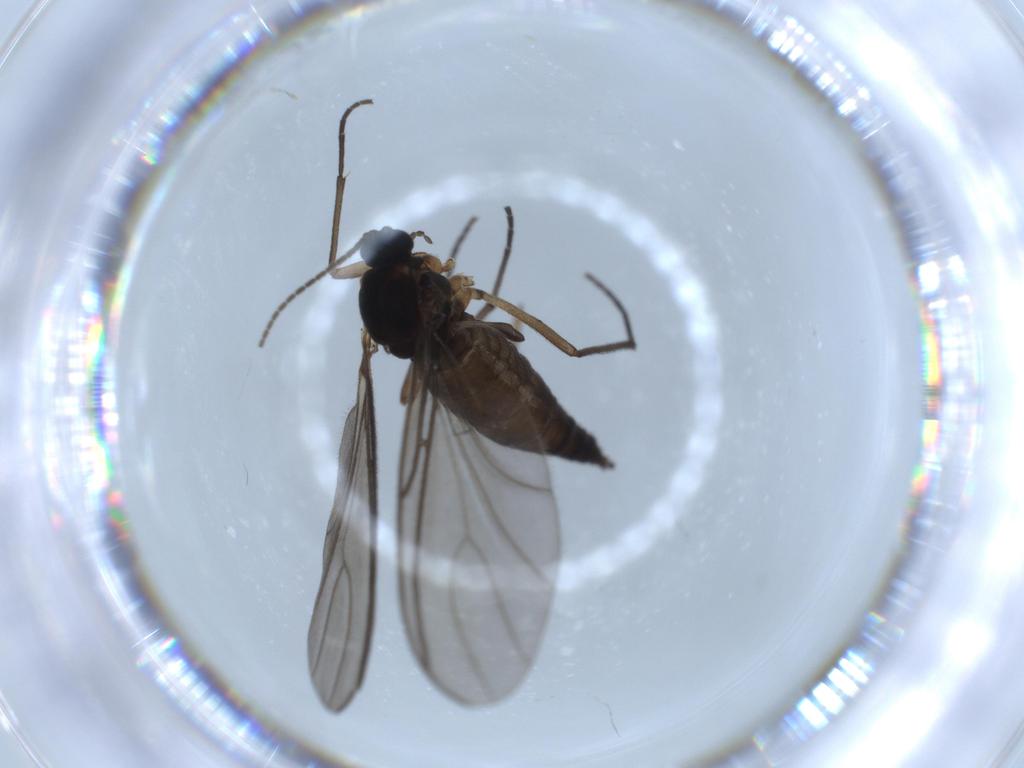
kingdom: Animalia
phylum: Arthropoda
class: Insecta
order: Diptera
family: Sciaridae
